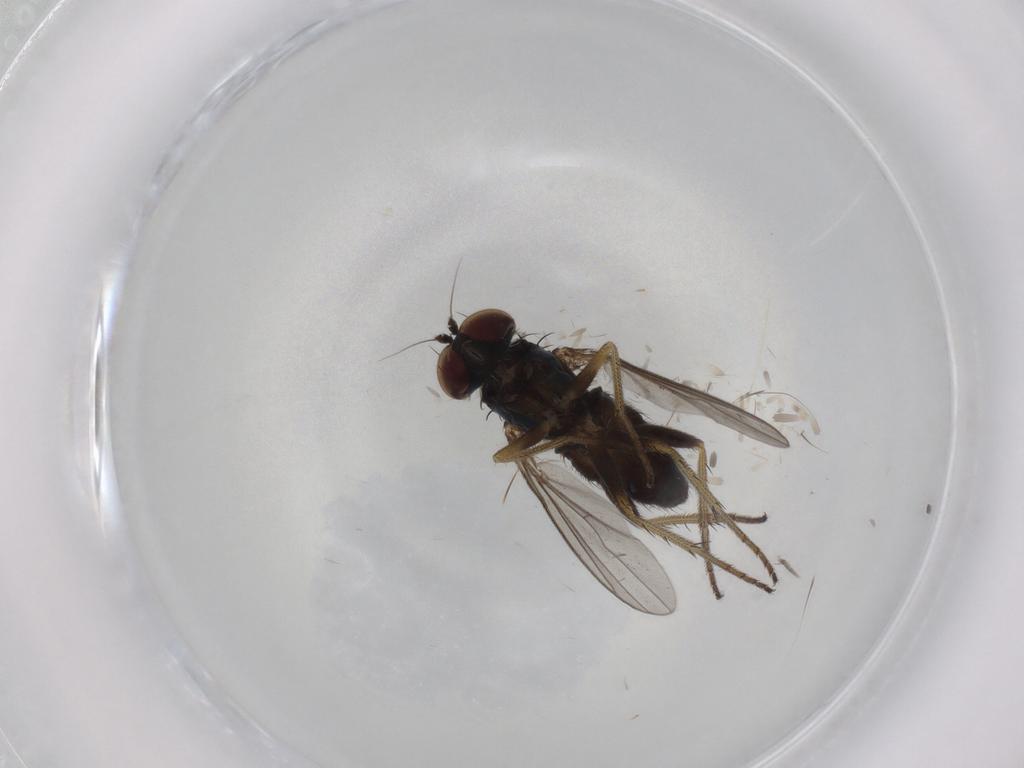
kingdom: Animalia
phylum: Arthropoda
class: Insecta
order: Diptera
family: Dolichopodidae
